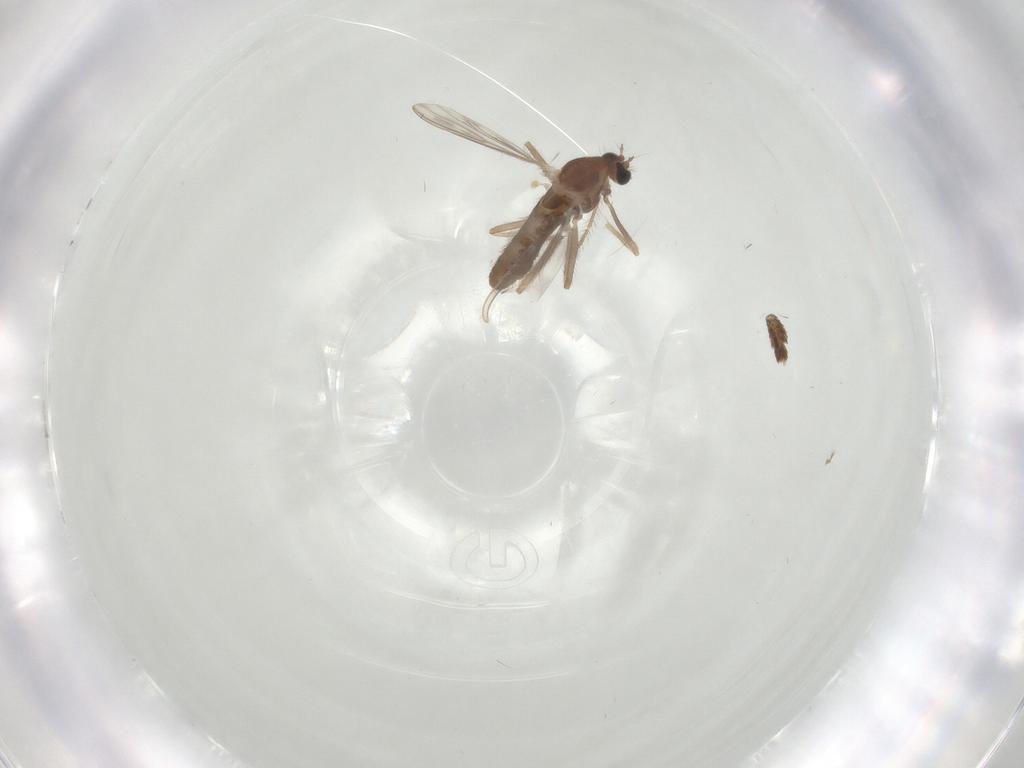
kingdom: Animalia
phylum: Arthropoda
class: Insecta
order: Diptera
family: Chironomidae
